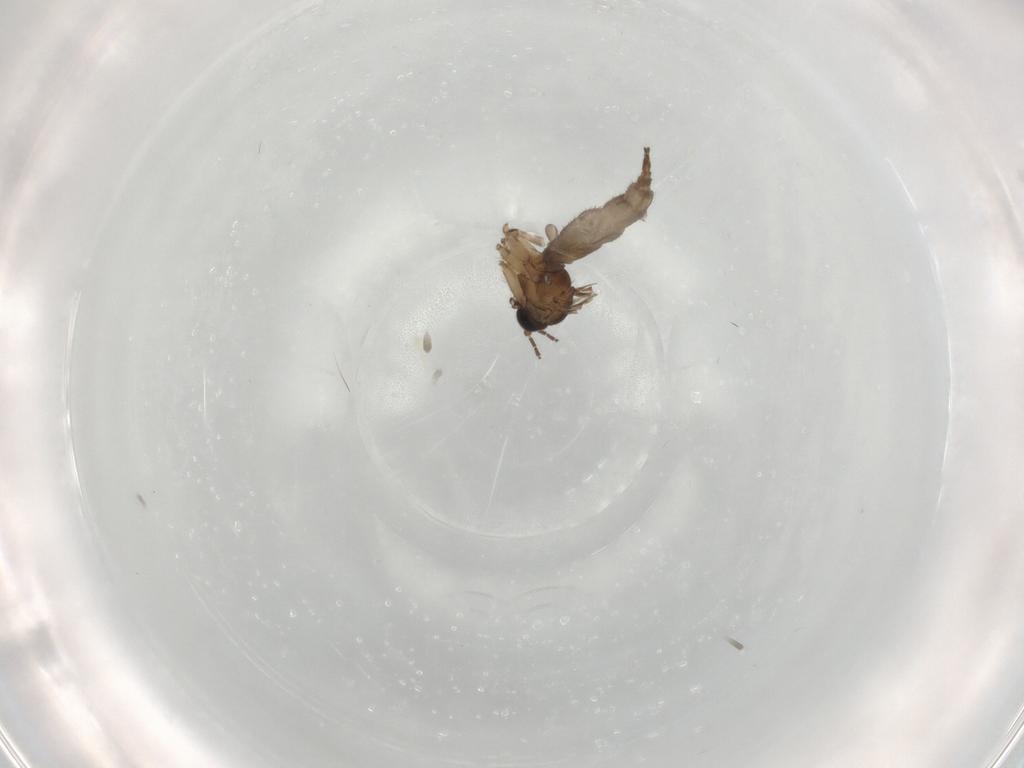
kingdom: Animalia
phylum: Arthropoda
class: Insecta
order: Diptera
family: Sciaridae
